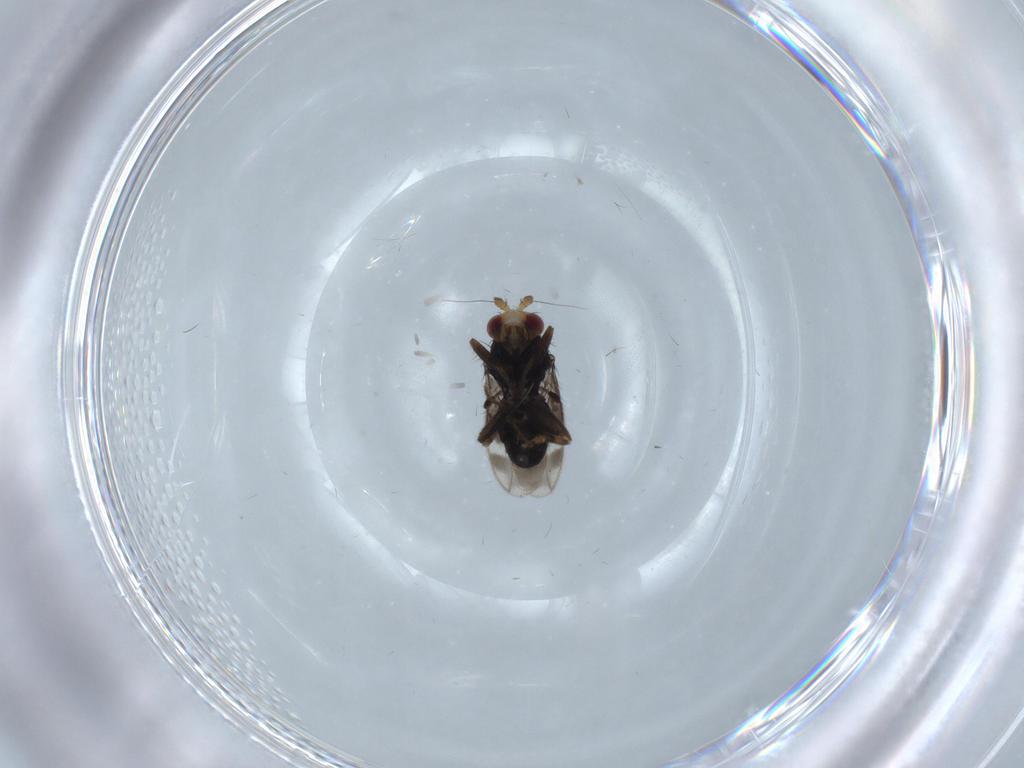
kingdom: Animalia
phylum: Arthropoda
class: Insecta
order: Diptera
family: Sphaeroceridae
